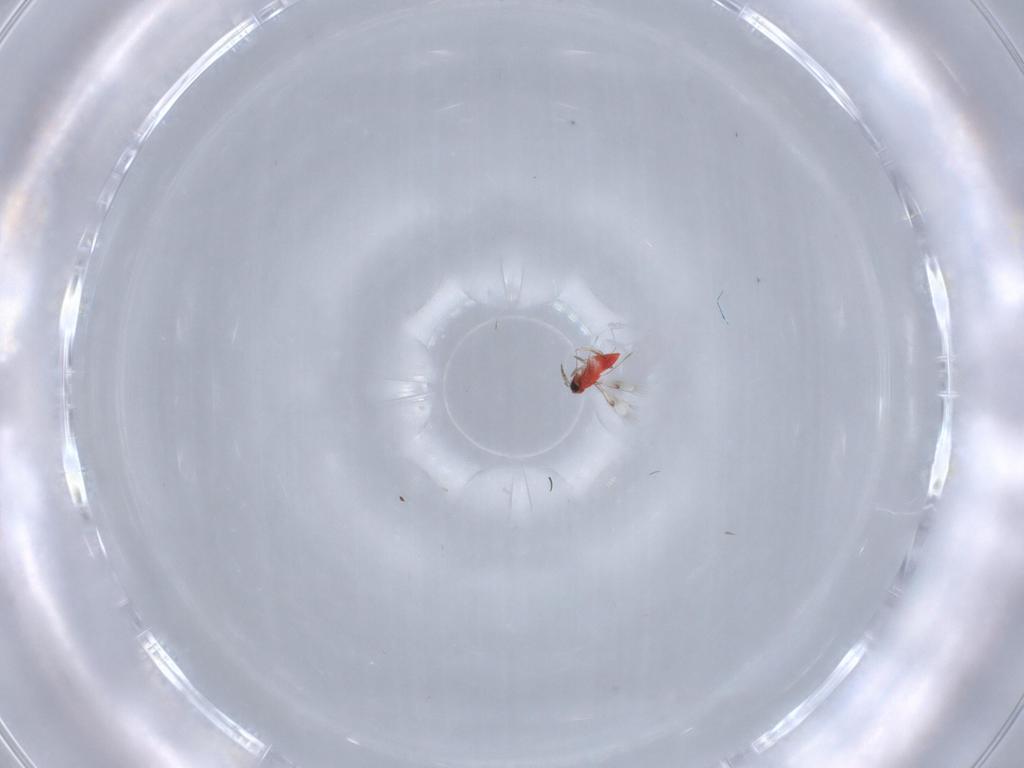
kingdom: Animalia
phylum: Arthropoda
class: Insecta
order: Hymenoptera
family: Trichogrammatidae
